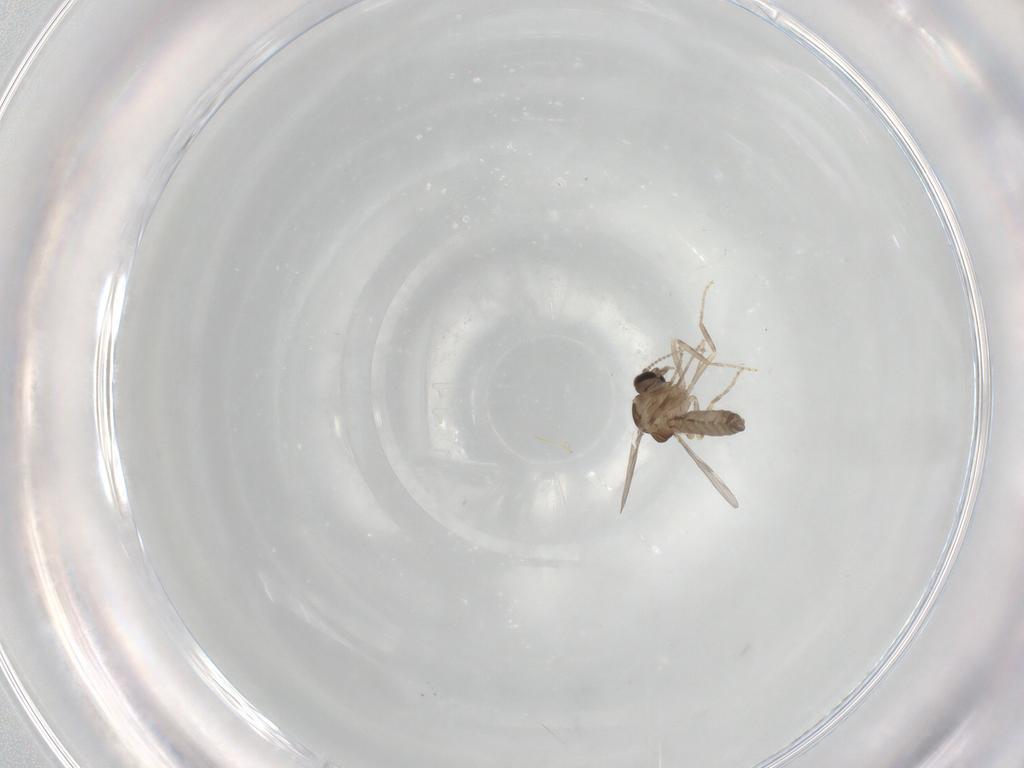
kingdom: Animalia
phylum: Arthropoda
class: Insecta
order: Diptera
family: Ceratopogonidae
